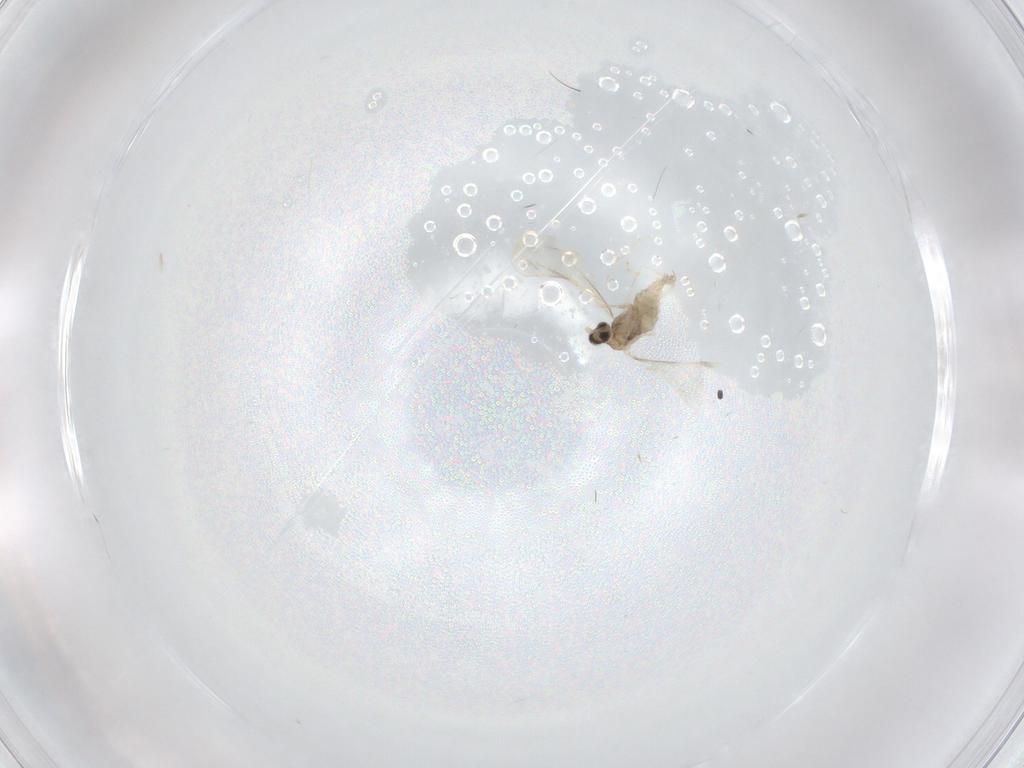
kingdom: Animalia
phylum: Arthropoda
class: Insecta
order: Diptera
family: Cecidomyiidae
